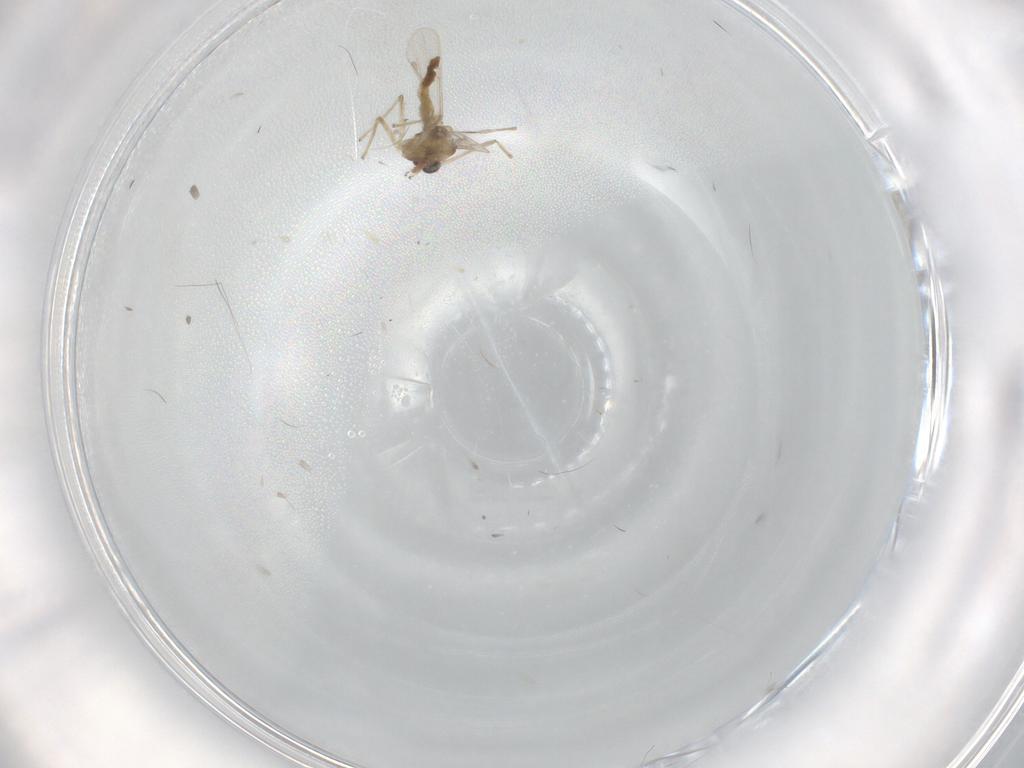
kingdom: Animalia
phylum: Arthropoda
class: Insecta
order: Diptera
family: Chironomidae
